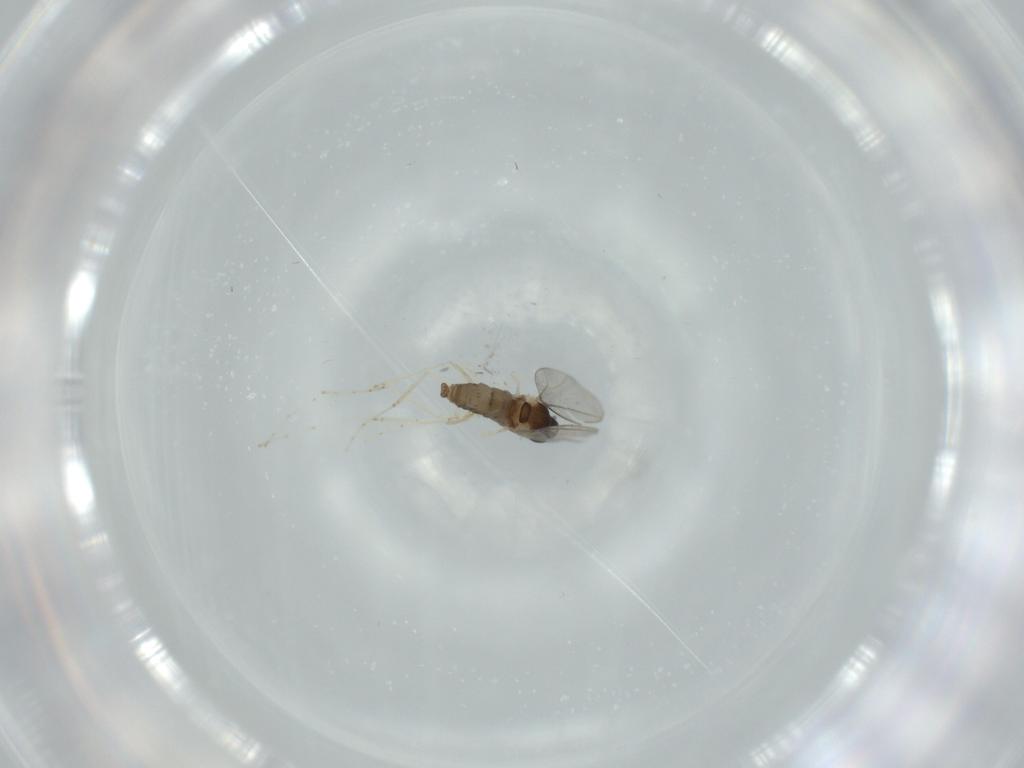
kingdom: Animalia
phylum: Arthropoda
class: Insecta
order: Diptera
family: Cecidomyiidae
